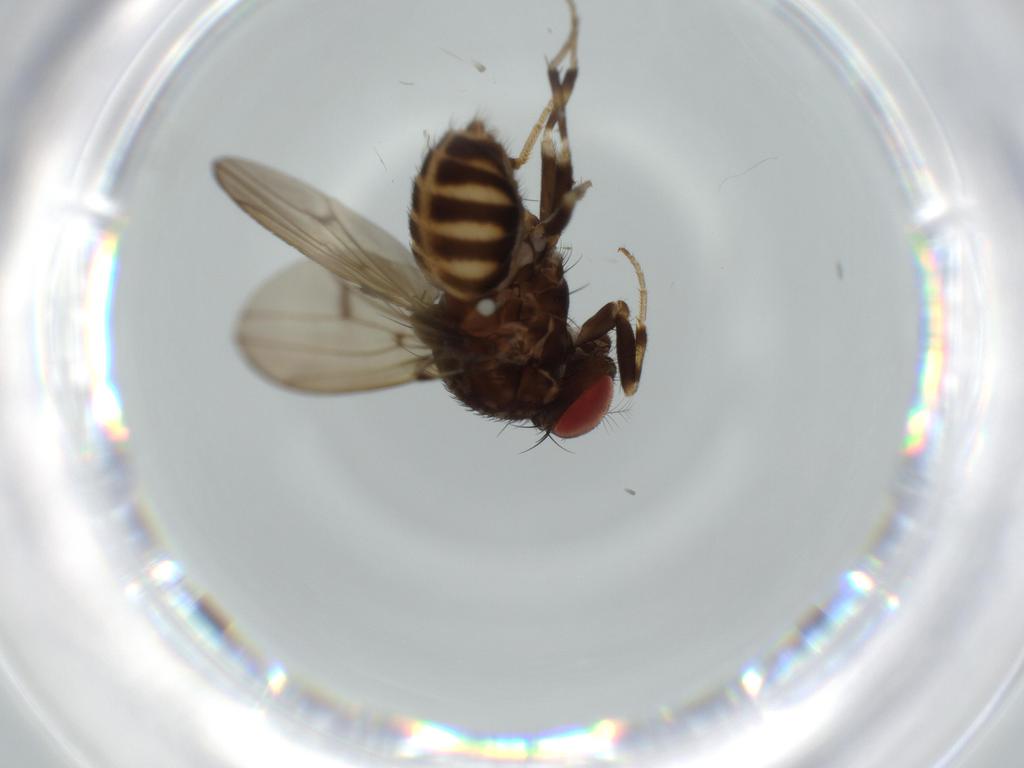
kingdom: Animalia
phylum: Arthropoda
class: Insecta
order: Diptera
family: Drosophilidae
